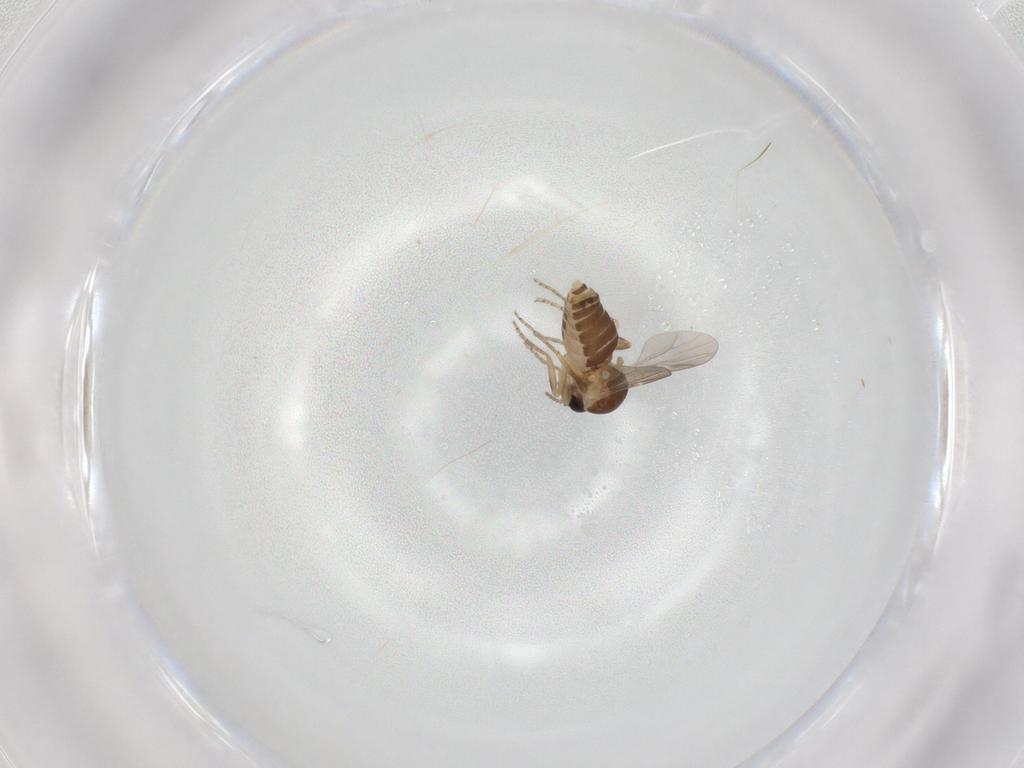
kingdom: Animalia
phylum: Arthropoda
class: Insecta
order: Diptera
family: Ceratopogonidae
